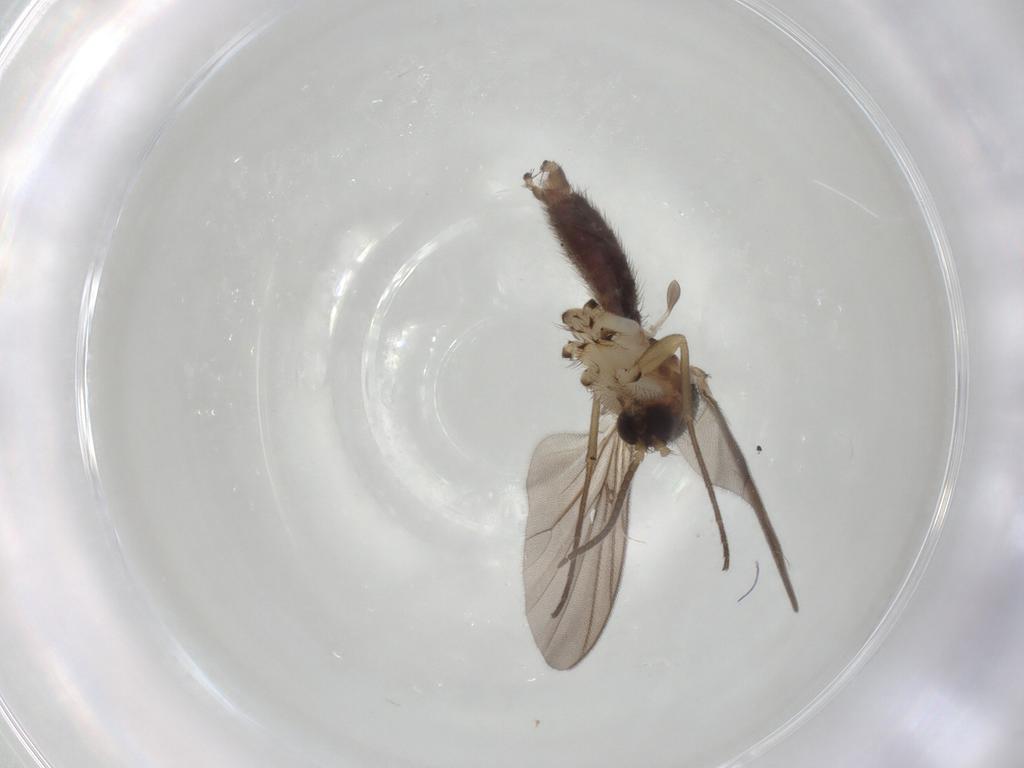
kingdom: Animalia
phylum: Arthropoda
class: Insecta
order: Diptera
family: Mycetophilidae
